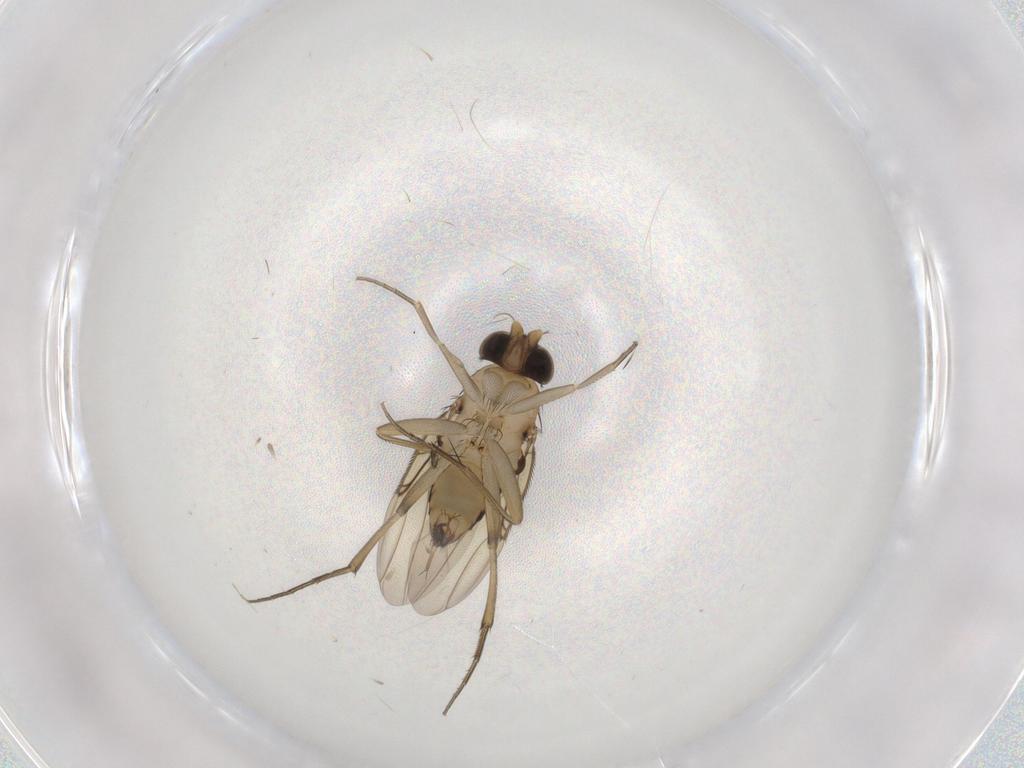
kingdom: Animalia
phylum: Arthropoda
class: Insecta
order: Diptera
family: Phoridae
